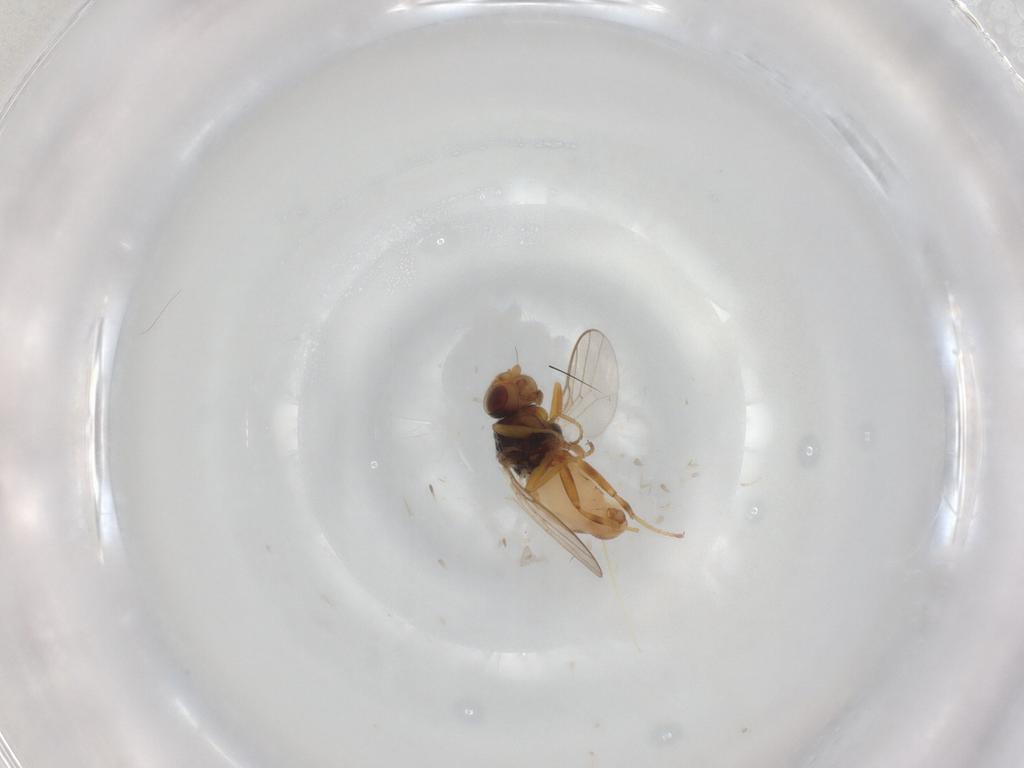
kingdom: Animalia
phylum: Arthropoda
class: Insecta
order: Diptera
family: Chloropidae
